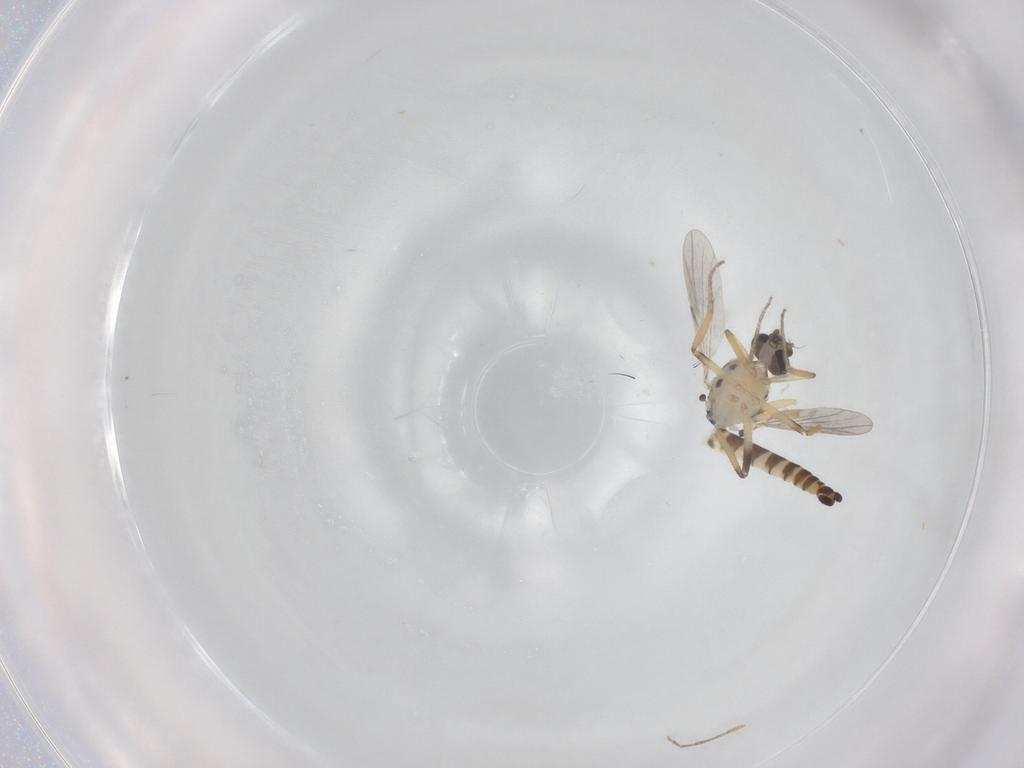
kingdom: Animalia
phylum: Arthropoda
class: Insecta
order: Diptera
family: Ceratopogonidae
